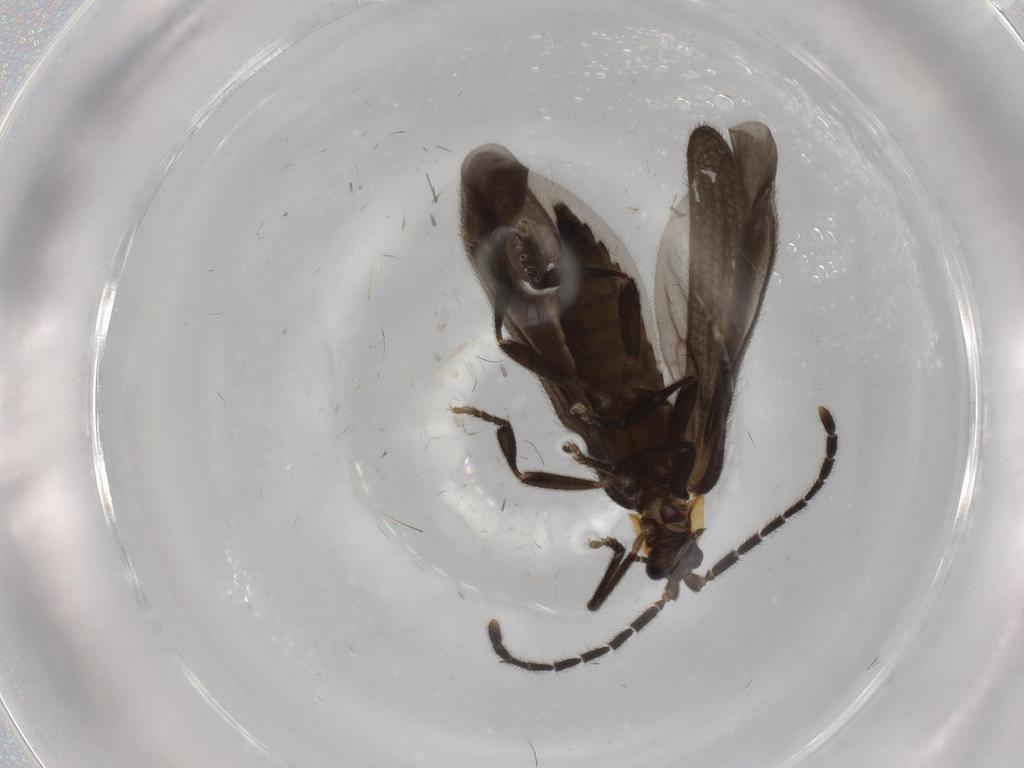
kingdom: Animalia
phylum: Arthropoda
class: Insecta
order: Coleoptera
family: Lycidae
